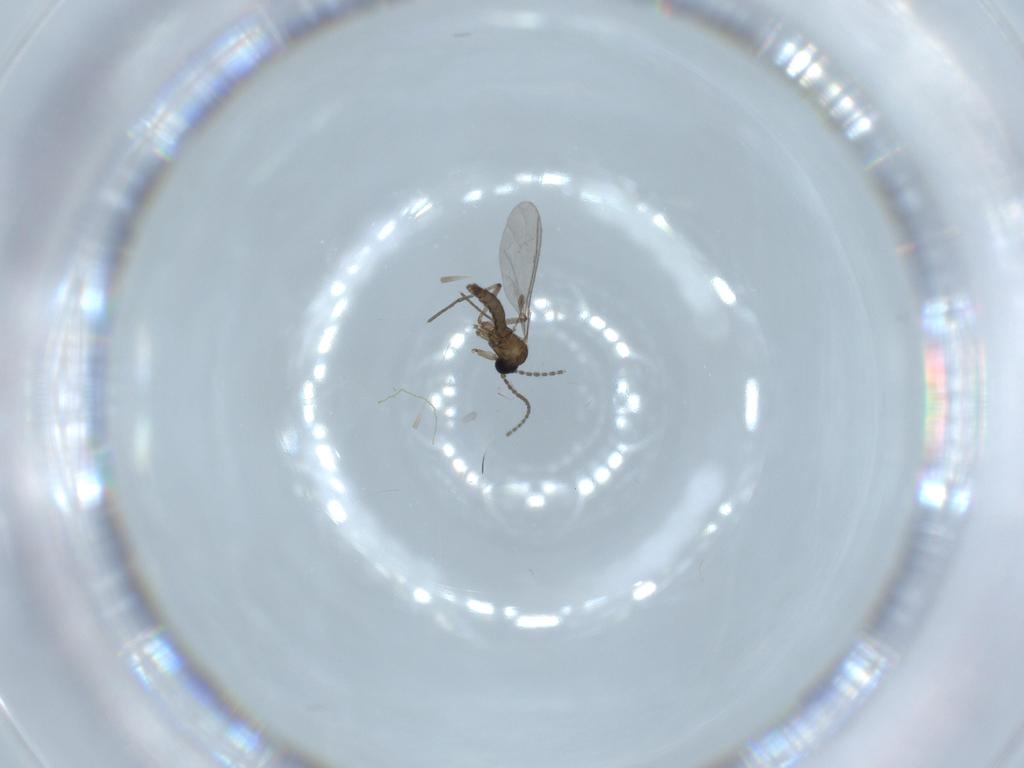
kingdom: Animalia
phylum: Arthropoda
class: Insecta
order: Diptera
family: Sciaridae
